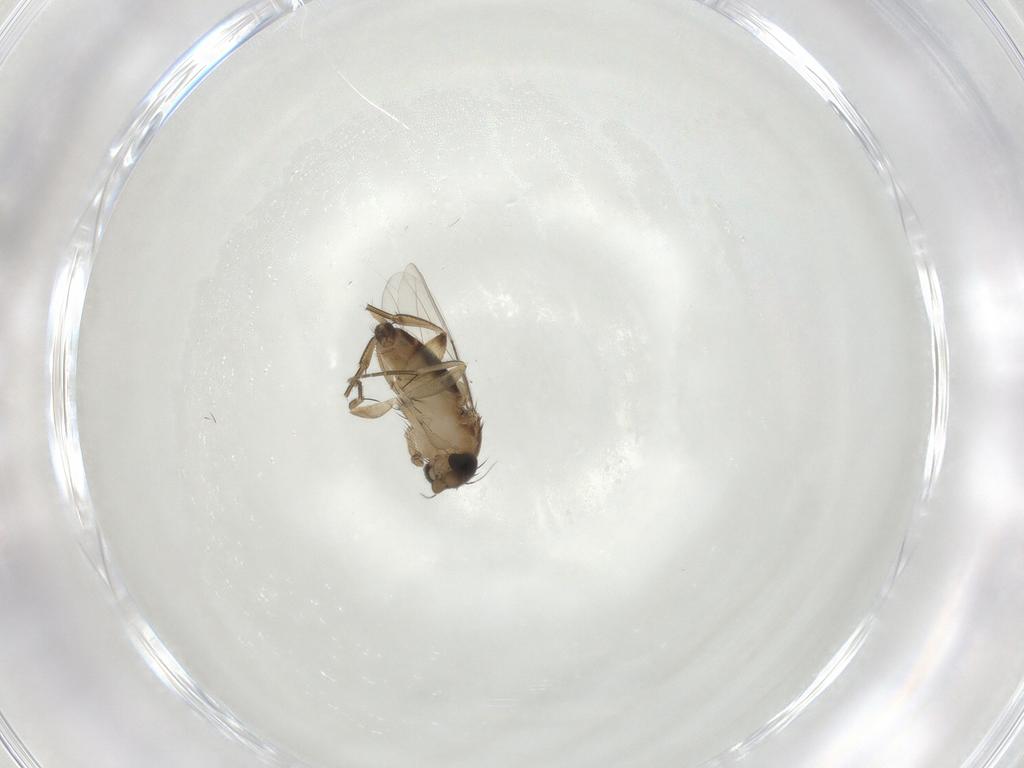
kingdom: Animalia
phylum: Arthropoda
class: Insecta
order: Diptera
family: Phoridae
